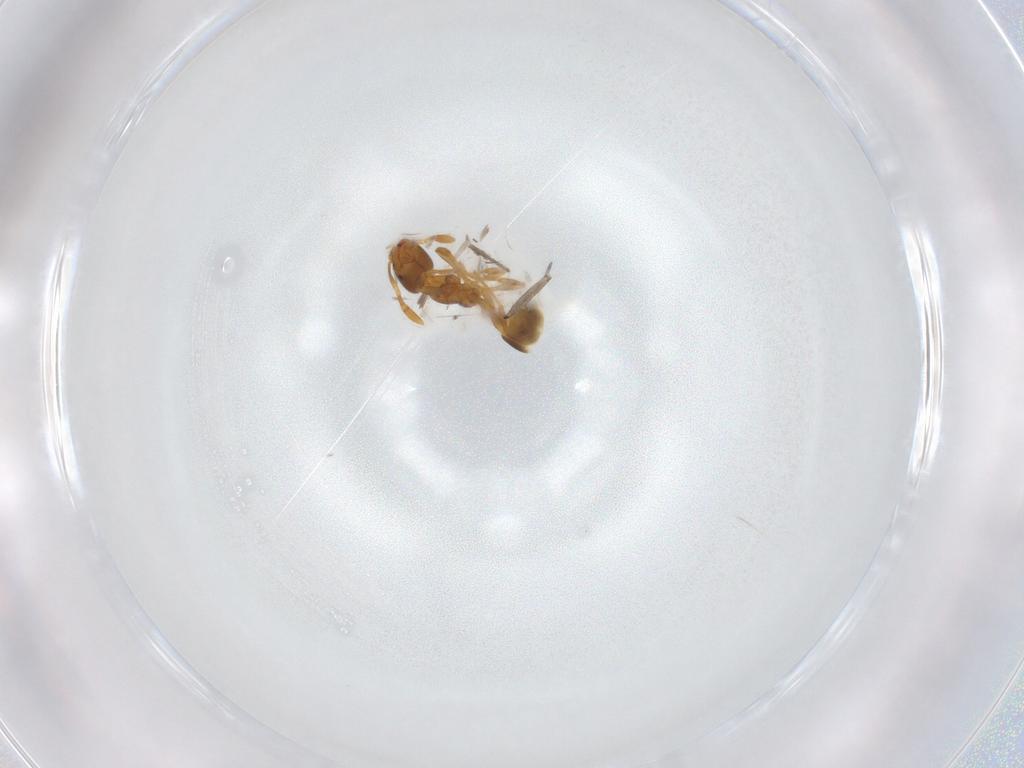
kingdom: Animalia
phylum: Arthropoda
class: Insecta
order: Hymenoptera
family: Formicidae
